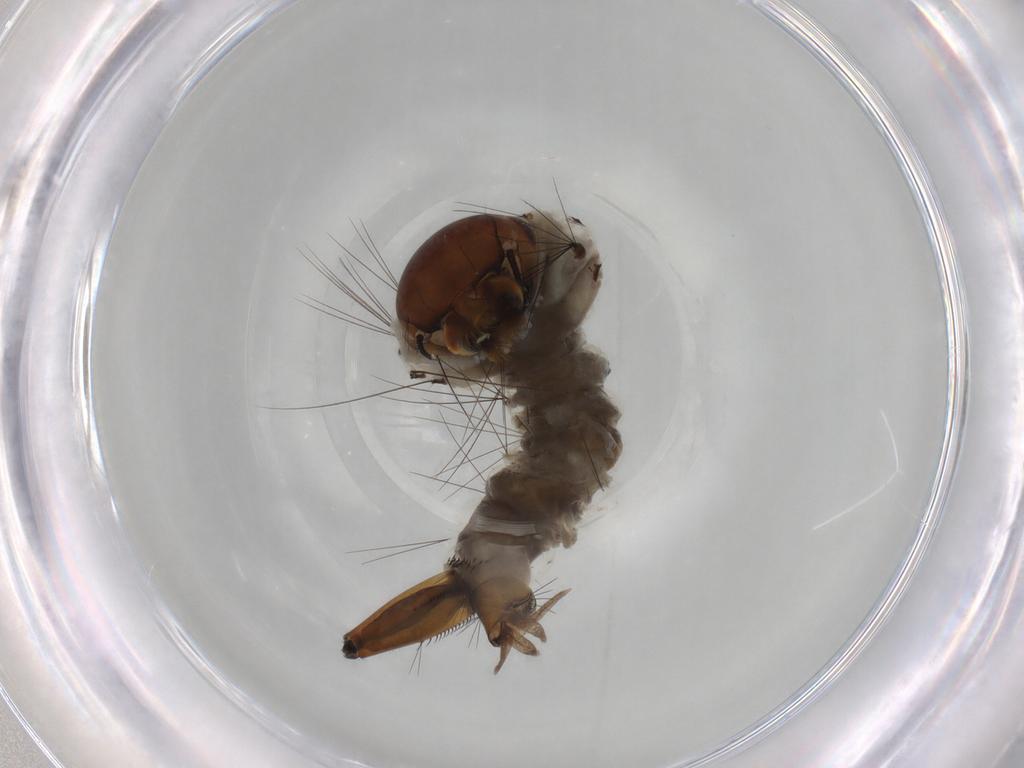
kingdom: Animalia
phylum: Arthropoda
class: Insecta
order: Diptera
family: Tipulidae
